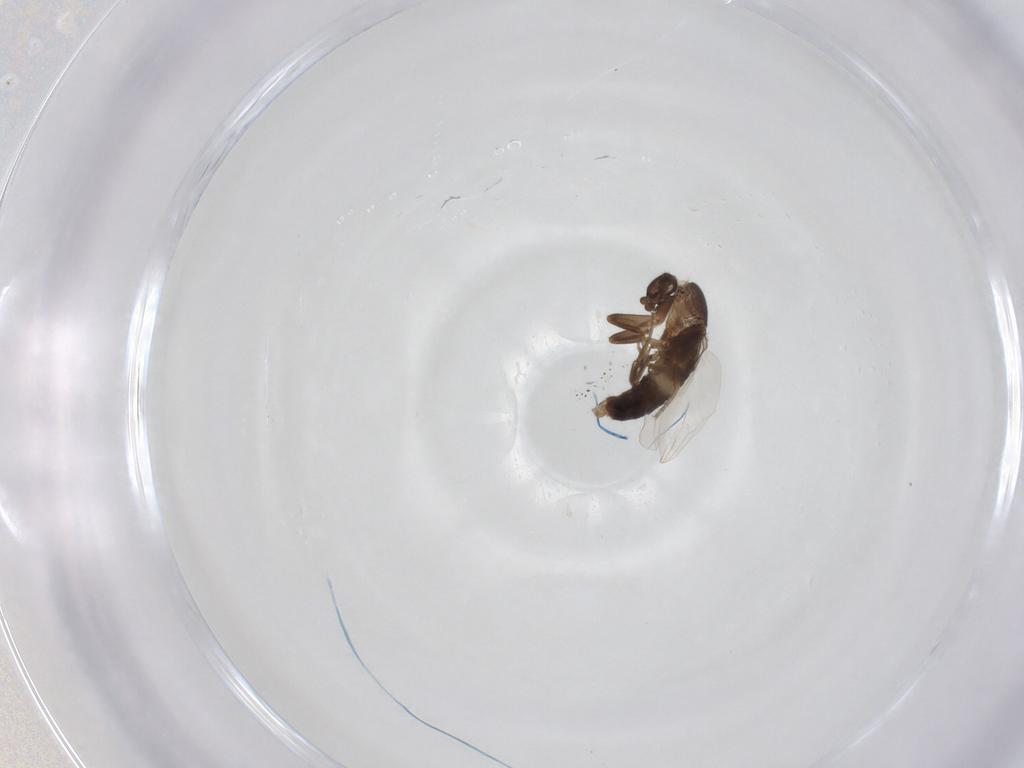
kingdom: Animalia
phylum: Arthropoda
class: Insecta
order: Diptera
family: Phoridae
